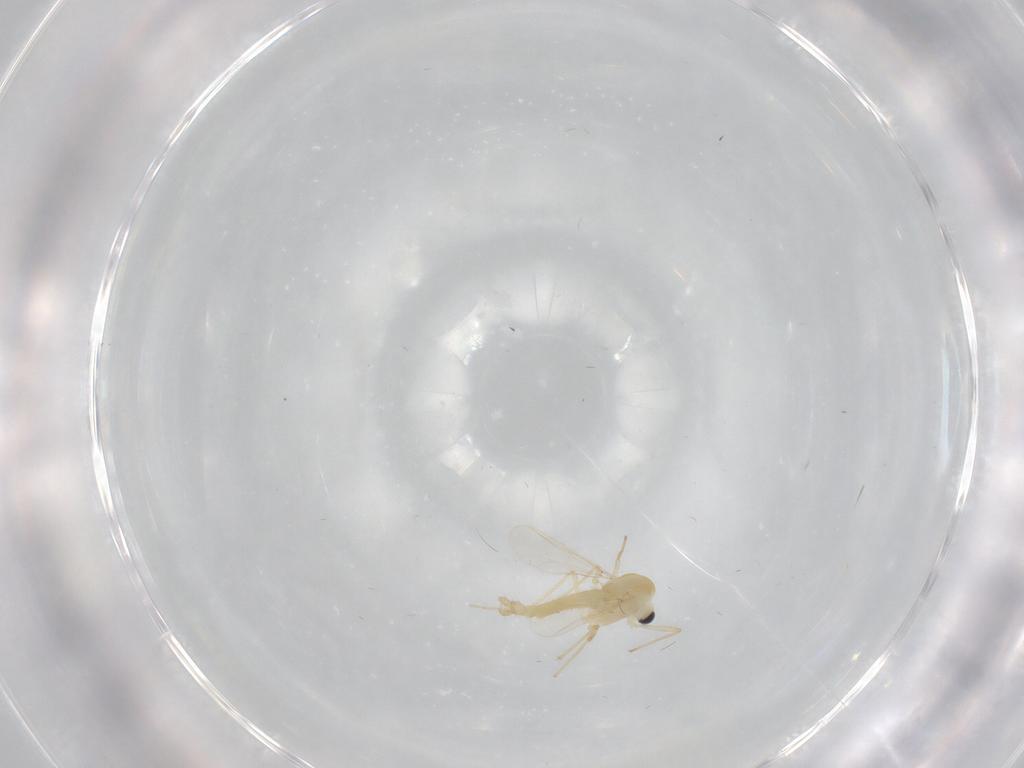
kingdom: Animalia
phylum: Arthropoda
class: Insecta
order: Diptera
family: Chironomidae
